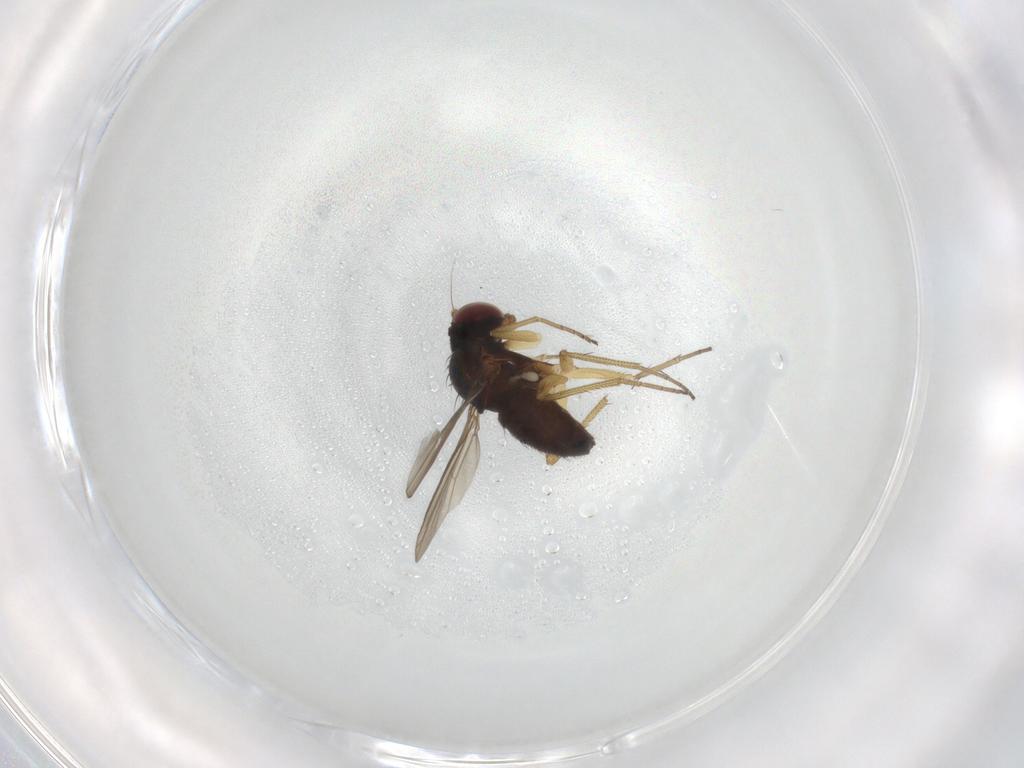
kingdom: Animalia
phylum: Arthropoda
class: Insecta
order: Diptera
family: Dolichopodidae
